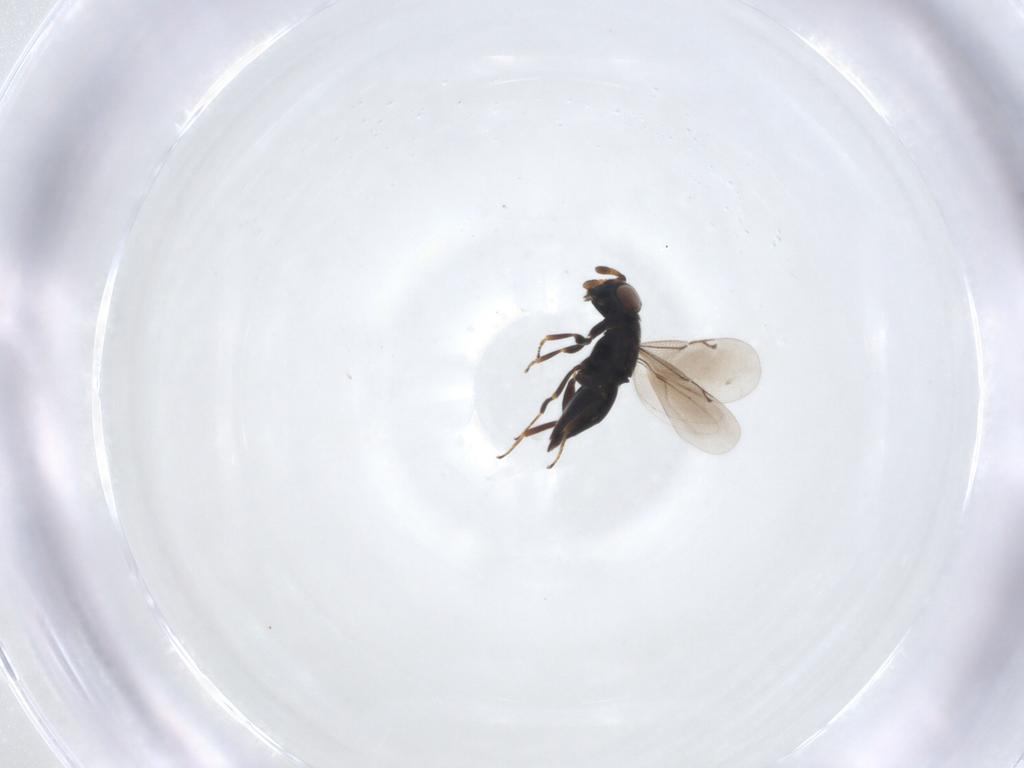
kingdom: Animalia
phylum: Arthropoda
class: Insecta
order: Hymenoptera
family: Eunotidae
